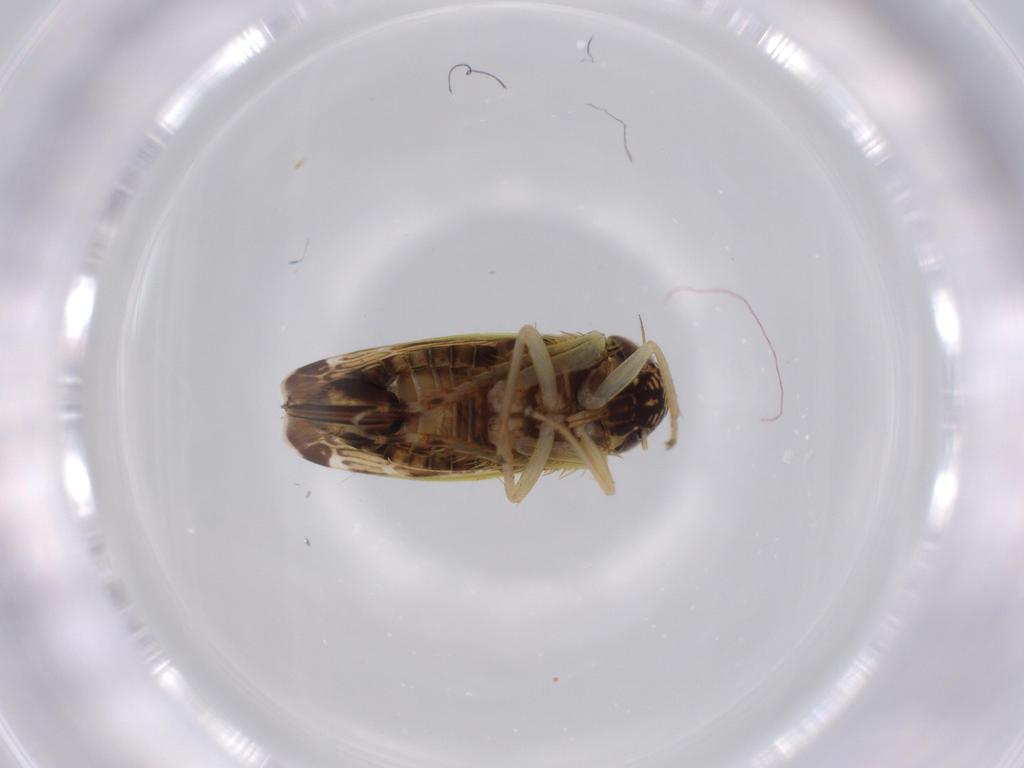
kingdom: Animalia
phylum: Arthropoda
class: Insecta
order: Hemiptera
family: Cicadellidae
